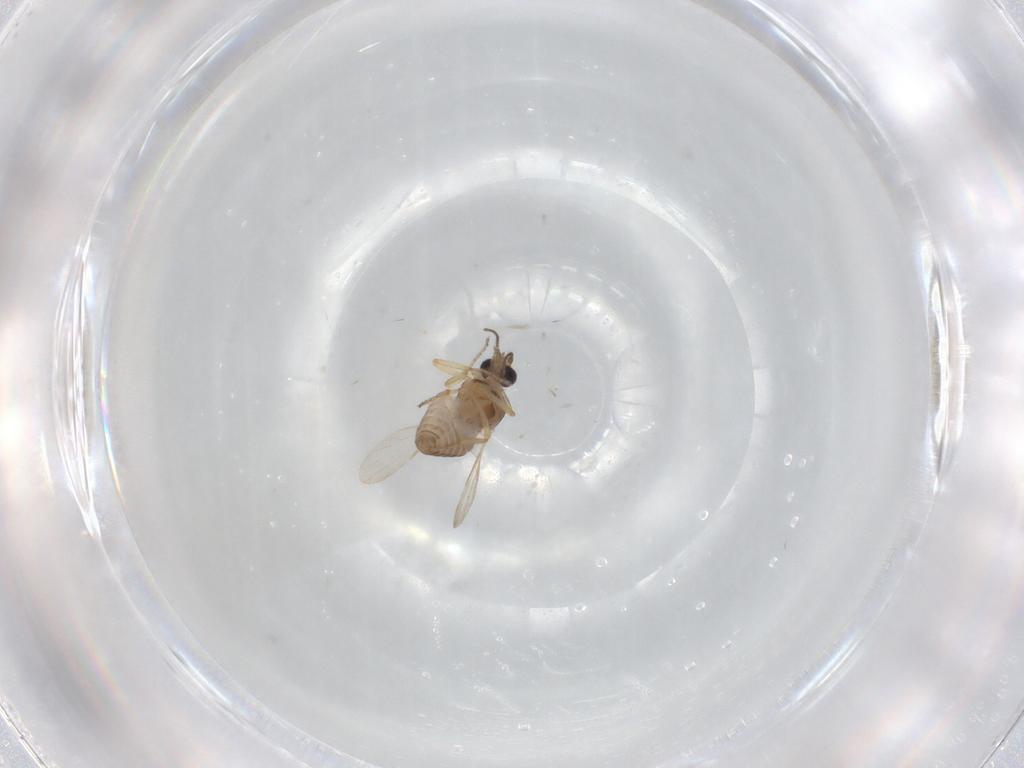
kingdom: Animalia
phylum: Arthropoda
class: Insecta
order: Diptera
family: Ceratopogonidae
